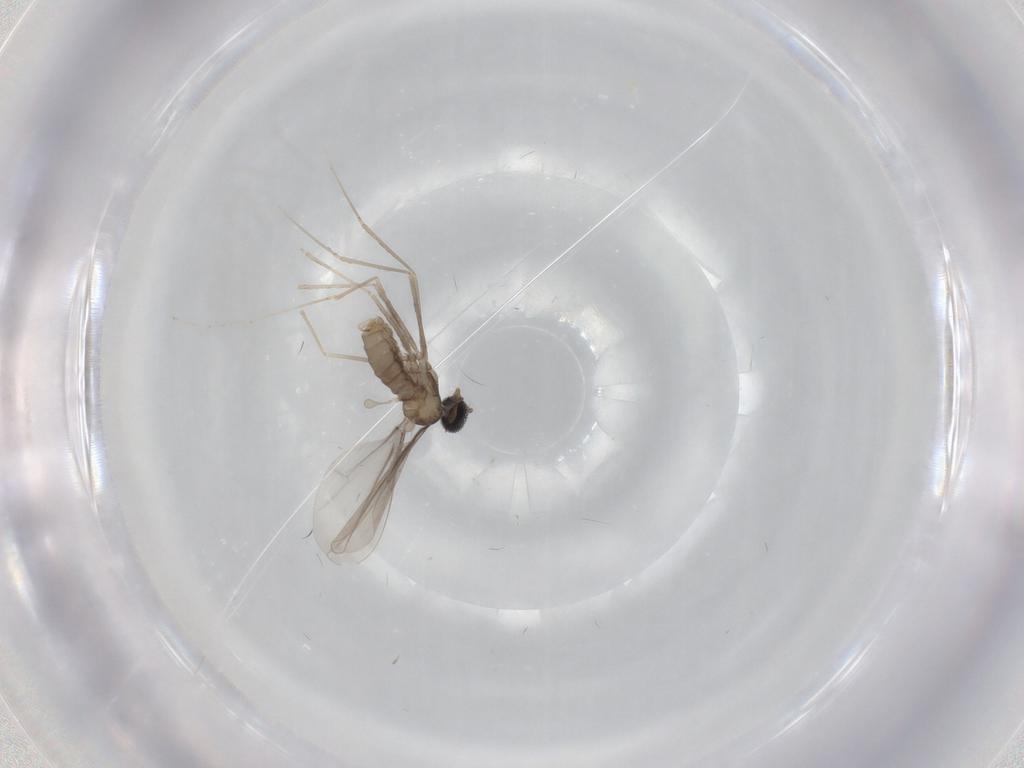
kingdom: Animalia
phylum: Arthropoda
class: Insecta
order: Diptera
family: Cecidomyiidae
